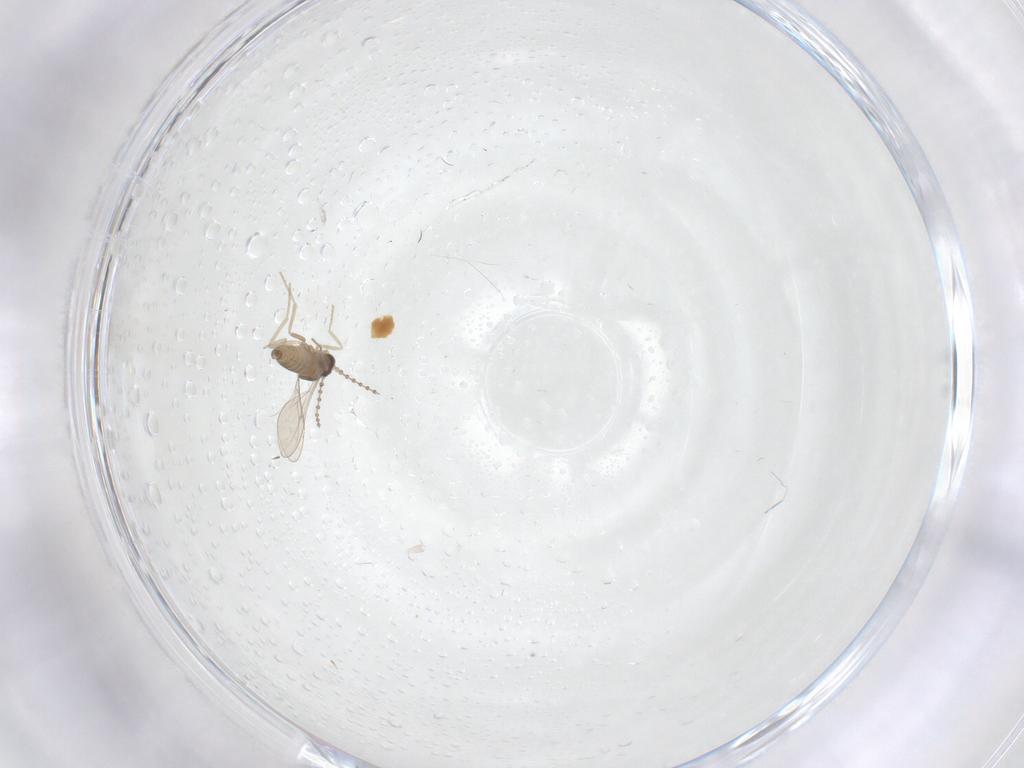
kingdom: Animalia
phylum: Arthropoda
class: Insecta
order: Diptera
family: Cecidomyiidae
